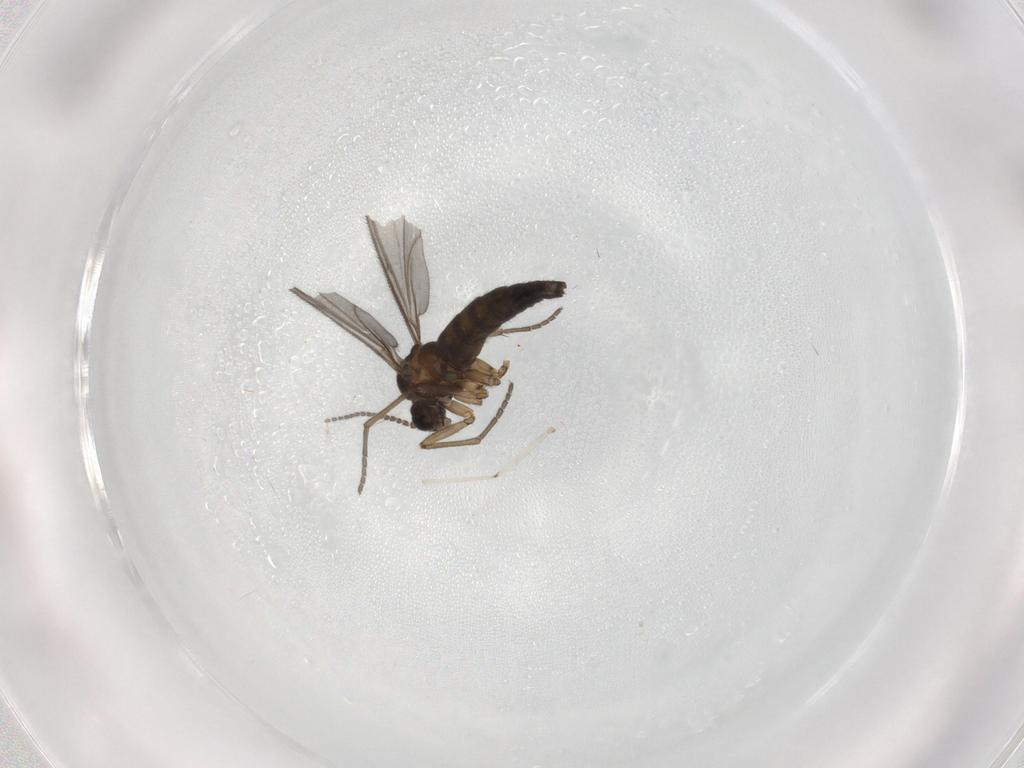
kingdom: Animalia
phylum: Arthropoda
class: Insecta
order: Diptera
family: Sciaridae
